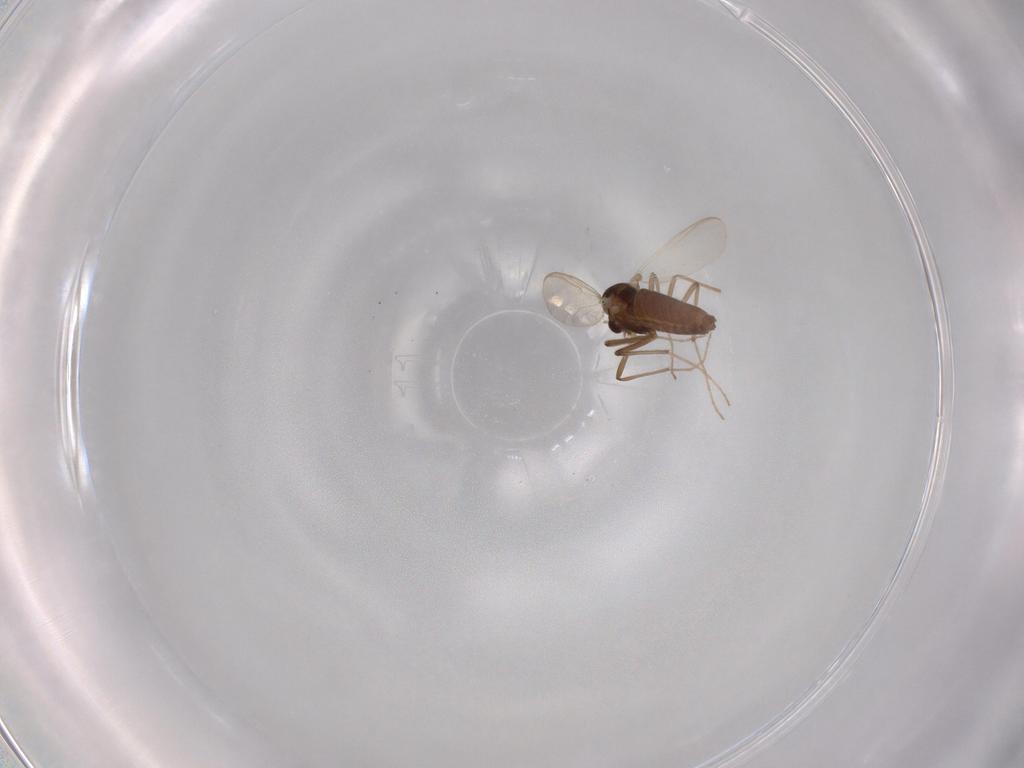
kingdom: Animalia
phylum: Arthropoda
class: Insecta
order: Diptera
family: Chironomidae
